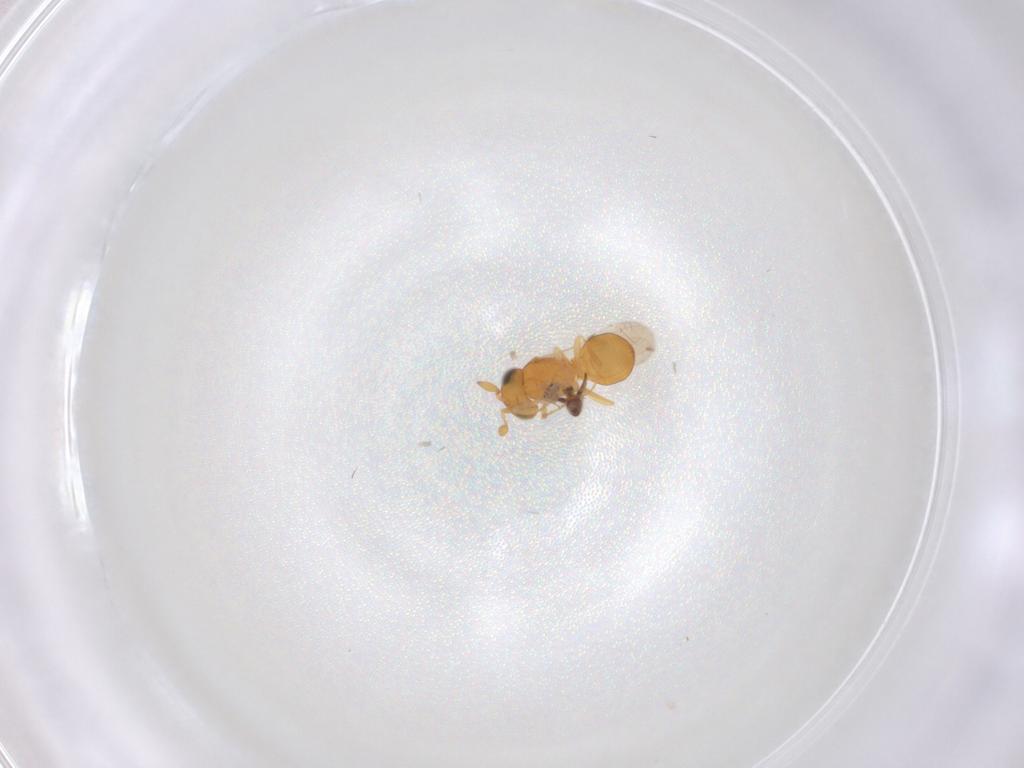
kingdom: Animalia
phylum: Arthropoda
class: Insecta
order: Hymenoptera
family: Scelionidae
